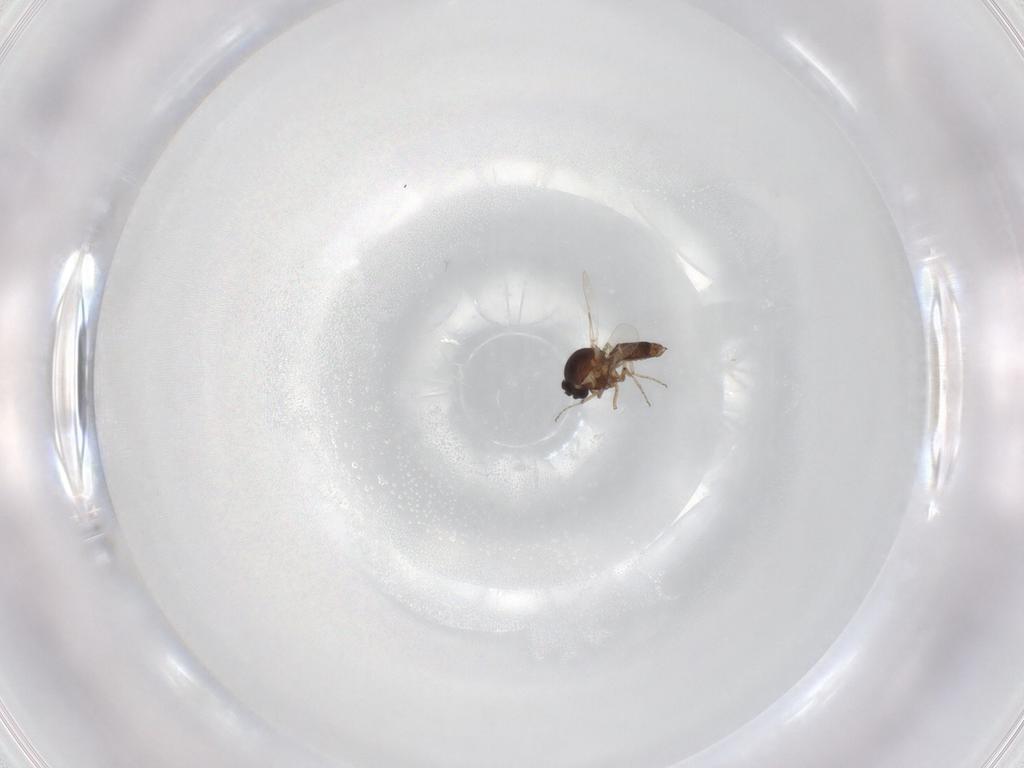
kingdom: Animalia
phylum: Arthropoda
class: Insecta
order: Diptera
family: Ceratopogonidae
